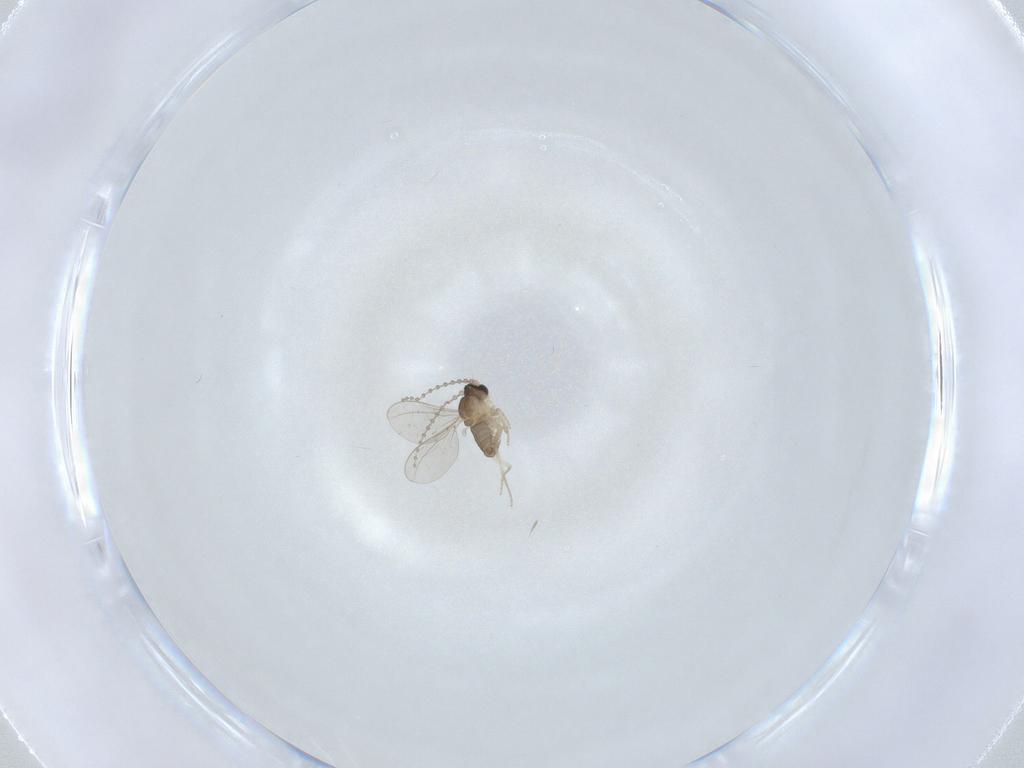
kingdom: Animalia
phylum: Arthropoda
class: Insecta
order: Diptera
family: Cecidomyiidae
